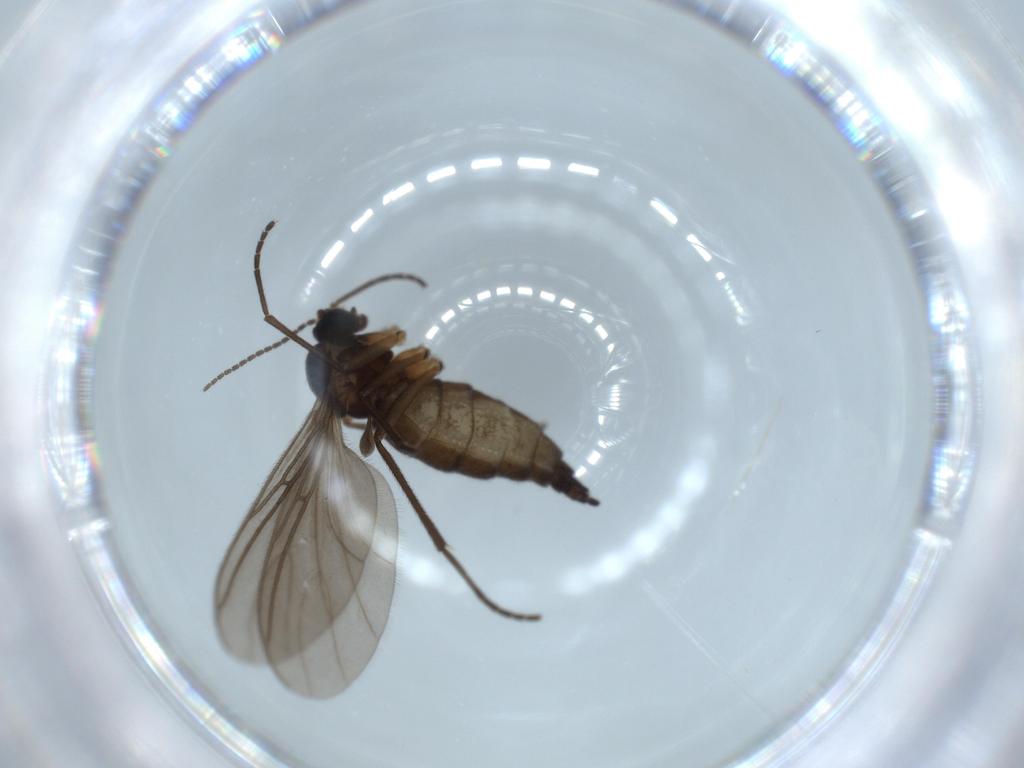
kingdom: Animalia
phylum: Arthropoda
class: Insecta
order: Diptera
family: Sciaridae
